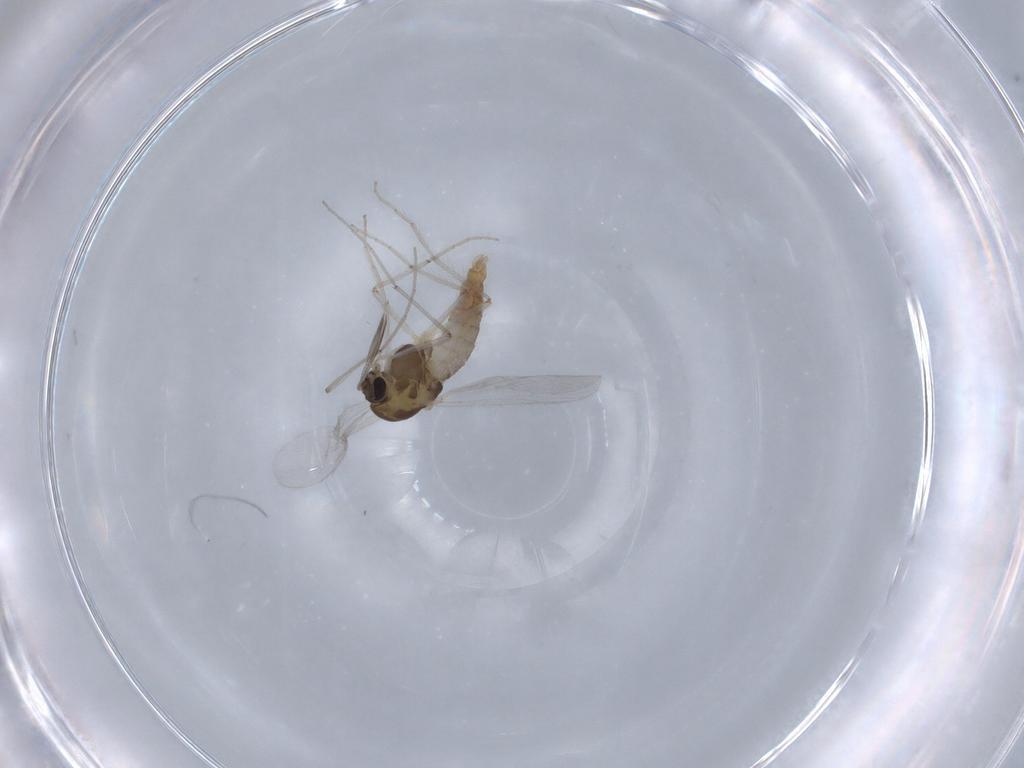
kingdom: Animalia
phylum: Arthropoda
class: Insecta
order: Diptera
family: Chironomidae
